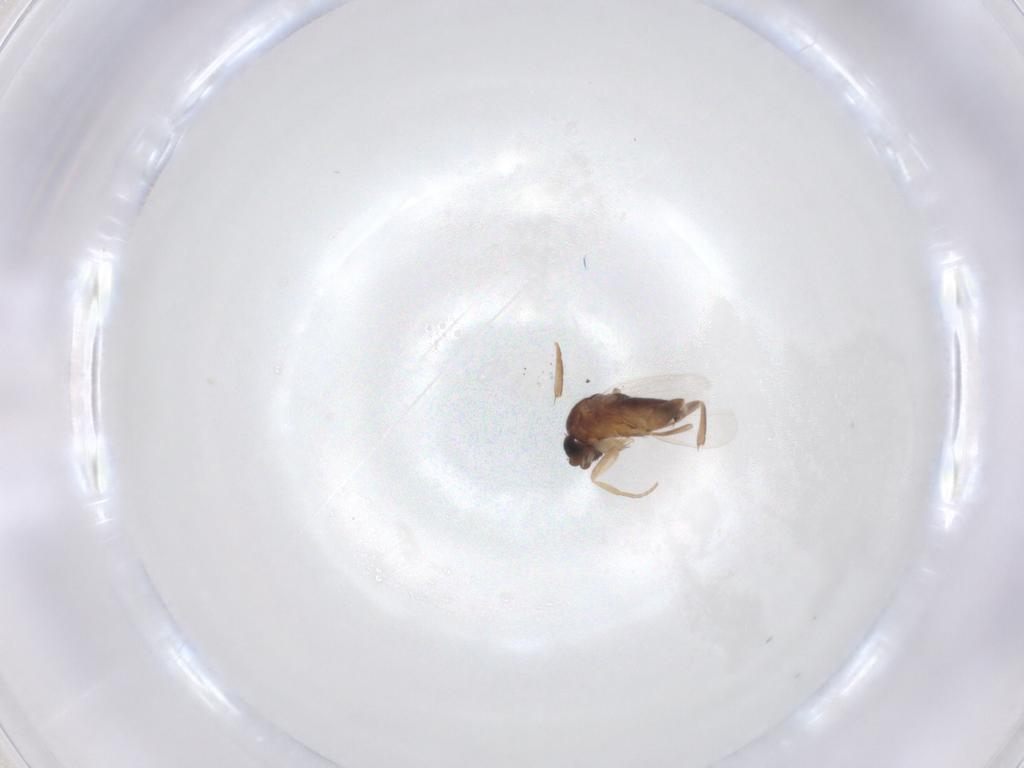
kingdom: Animalia
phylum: Arthropoda
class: Insecta
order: Diptera
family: Phoridae
